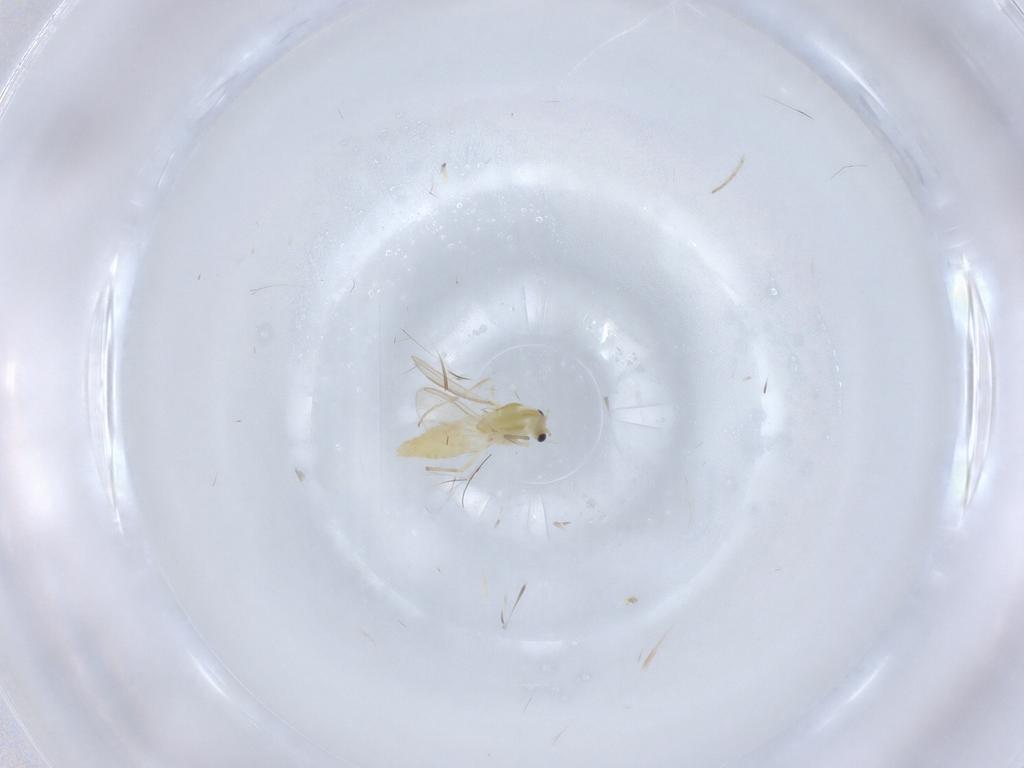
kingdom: Animalia
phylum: Arthropoda
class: Insecta
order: Diptera
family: Chironomidae
